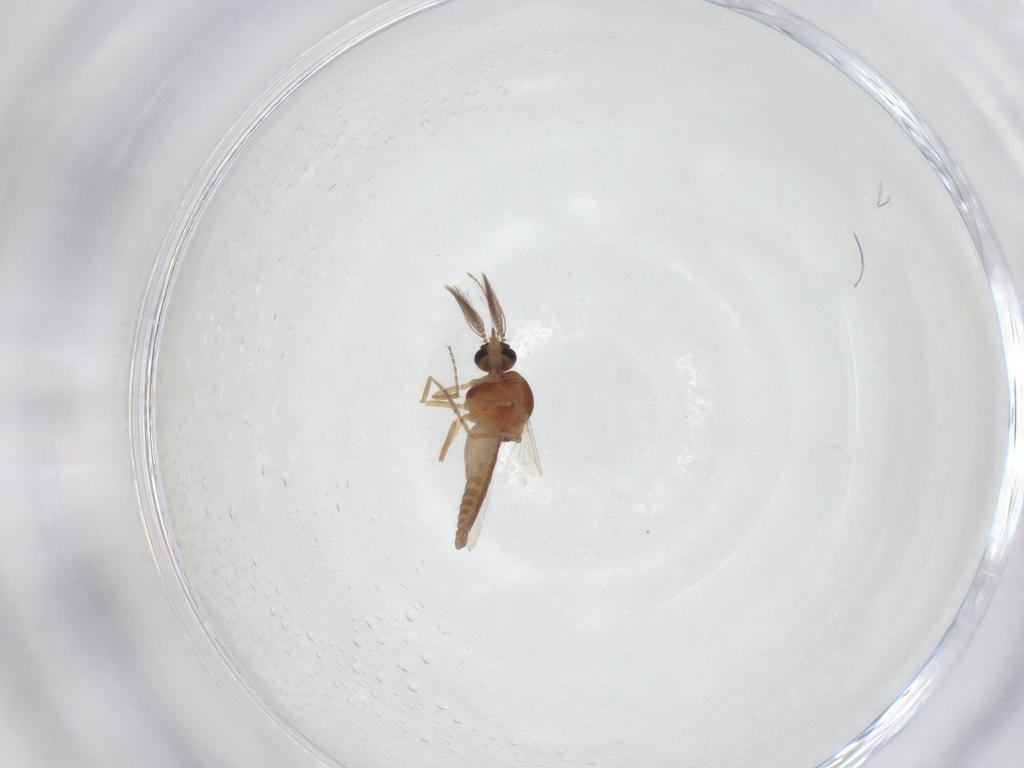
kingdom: Animalia
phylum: Arthropoda
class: Insecta
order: Diptera
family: Ceratopogonidae
